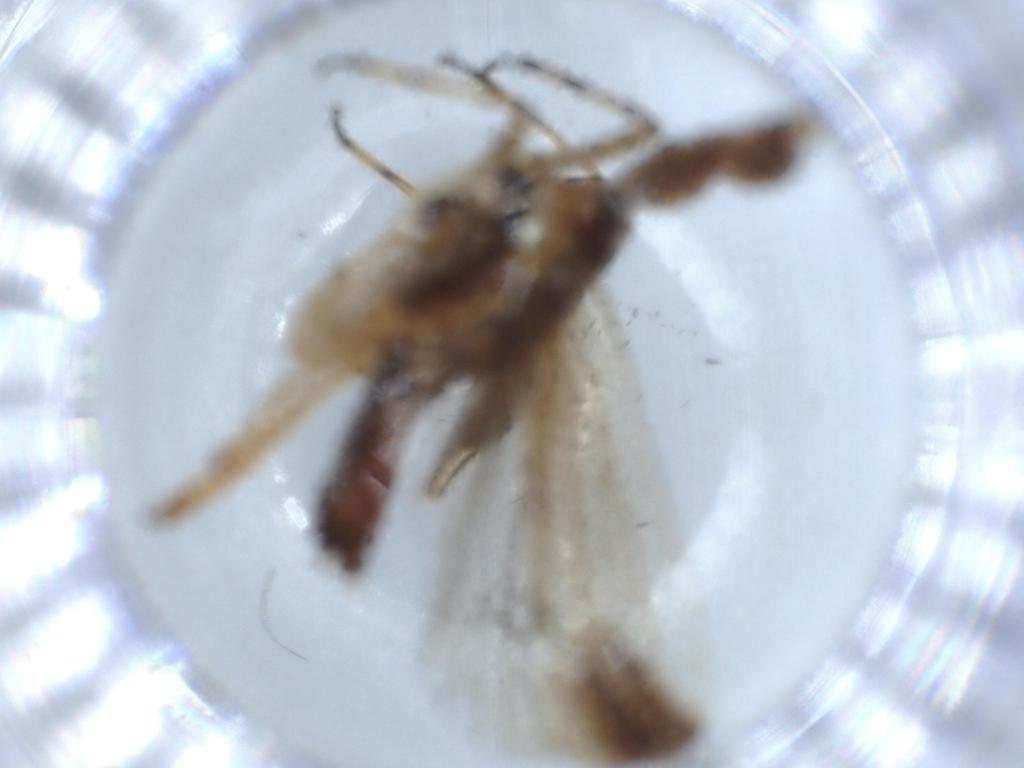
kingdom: Animalia
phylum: Arthropoda
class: Insecta
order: Coleoptera
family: Chrysomelidae
